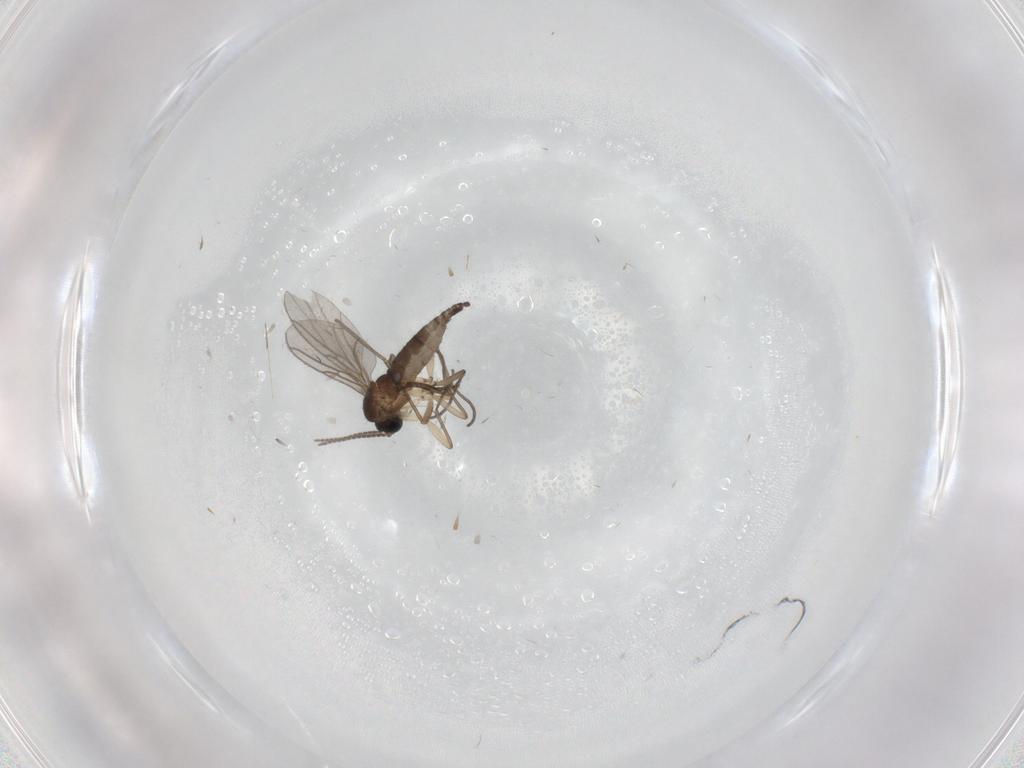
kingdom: Animalia
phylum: Arthropoda
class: Insecta
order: Diptera
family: Sciaridae
